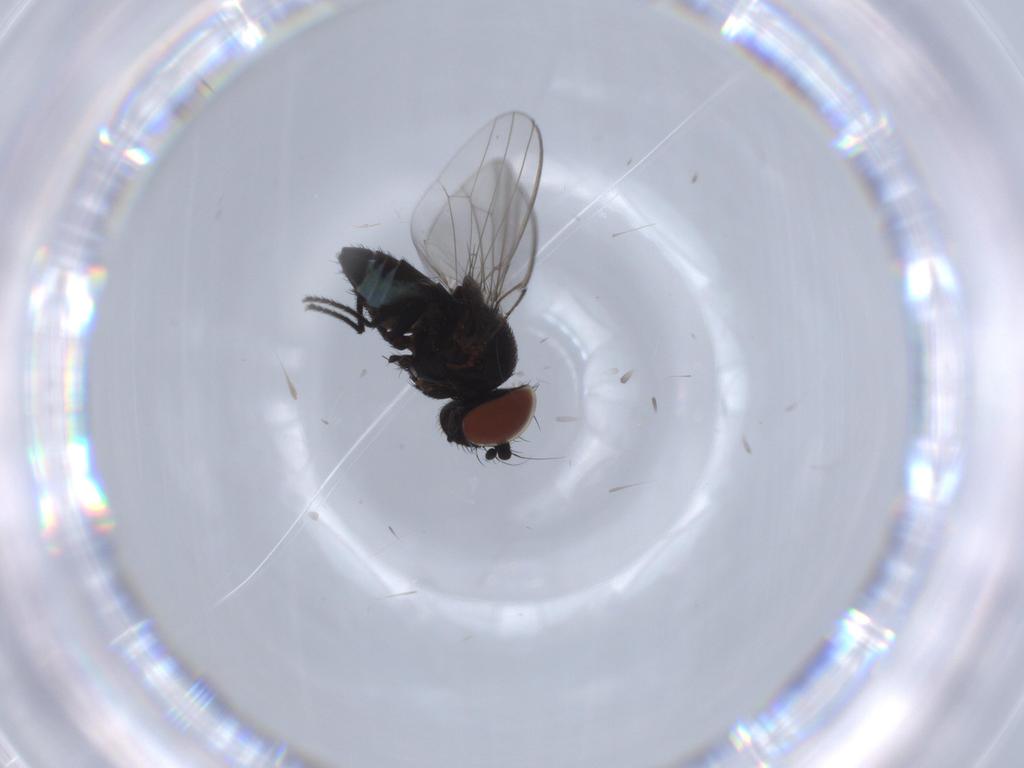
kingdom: Animalia
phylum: Arthropoda
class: Insecta
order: Diptera
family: Milichiidae
